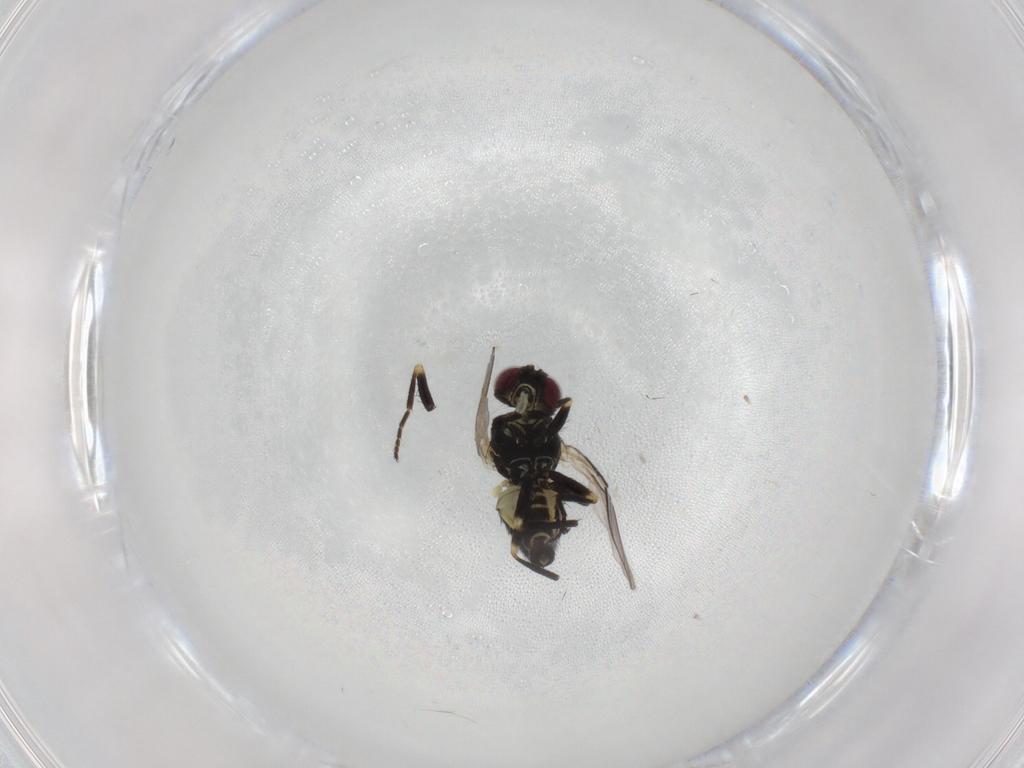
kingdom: Animalia
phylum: Arthropoda
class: Insecta
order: Diptera
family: Agromyzidae
